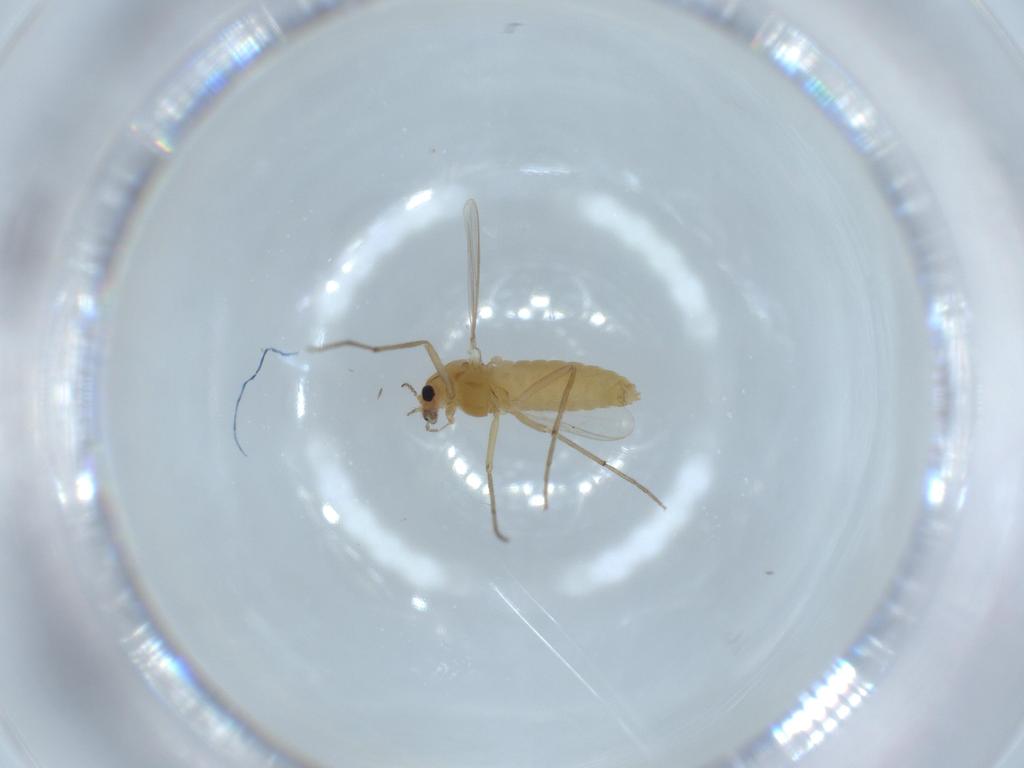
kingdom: Animalia
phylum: Arthropoda
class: Insecta
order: Diptera
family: Chironomidae
